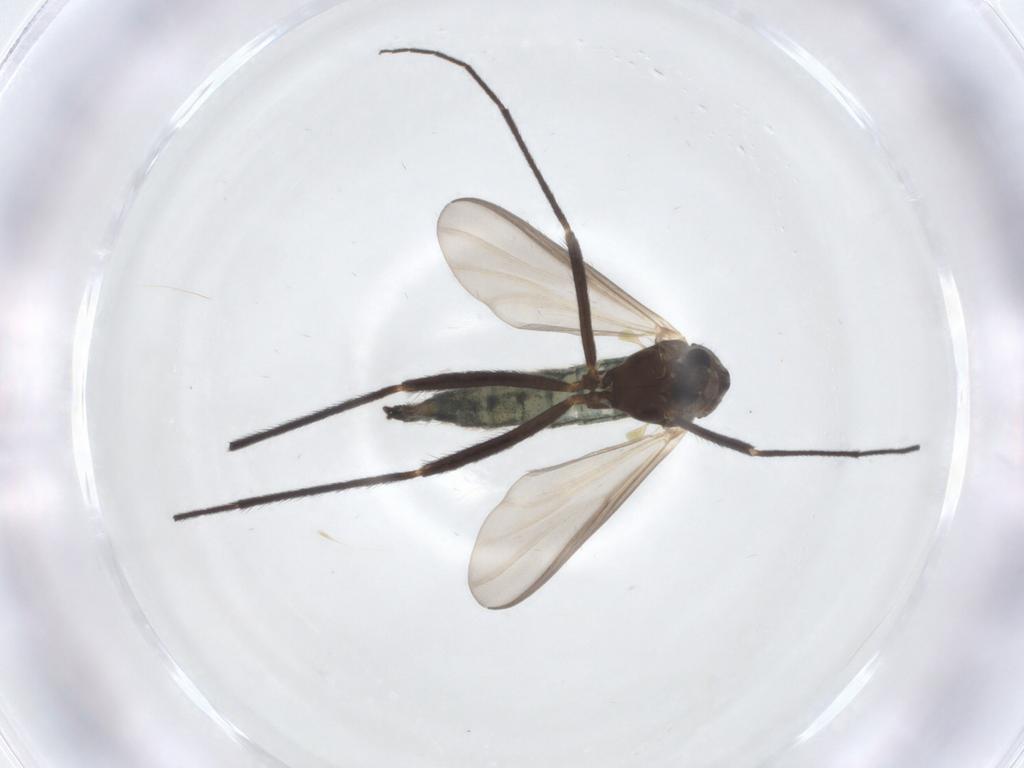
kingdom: Animalia
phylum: Arthropoda
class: Insecta
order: Diptera
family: Chironomidae
